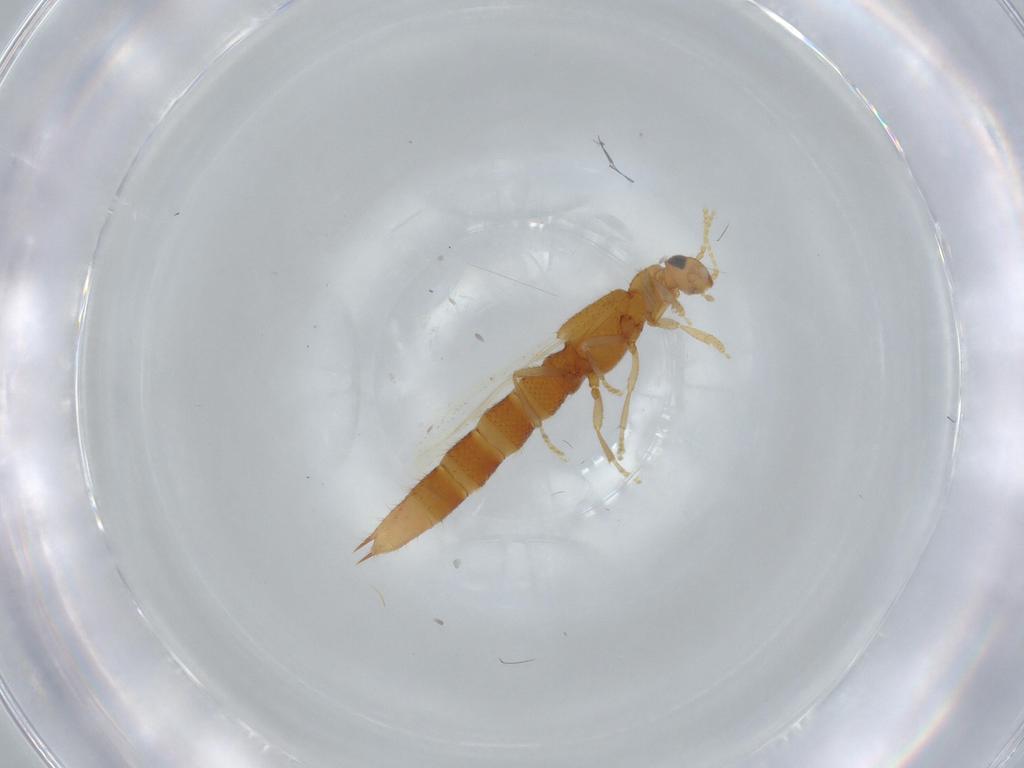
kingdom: Animalia
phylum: Arthropoda
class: Insecta
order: Coleoptera
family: Staphylinidae
